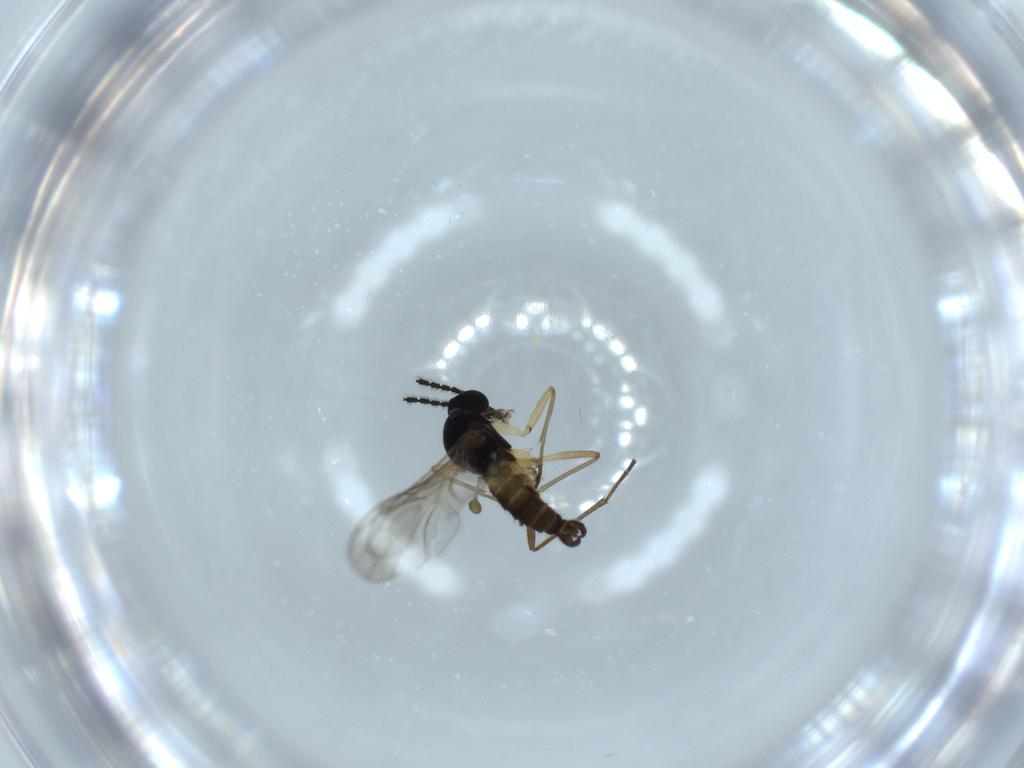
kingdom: Animalia
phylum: Arthropoda
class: Insecta
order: Diptera
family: Sciaridae
